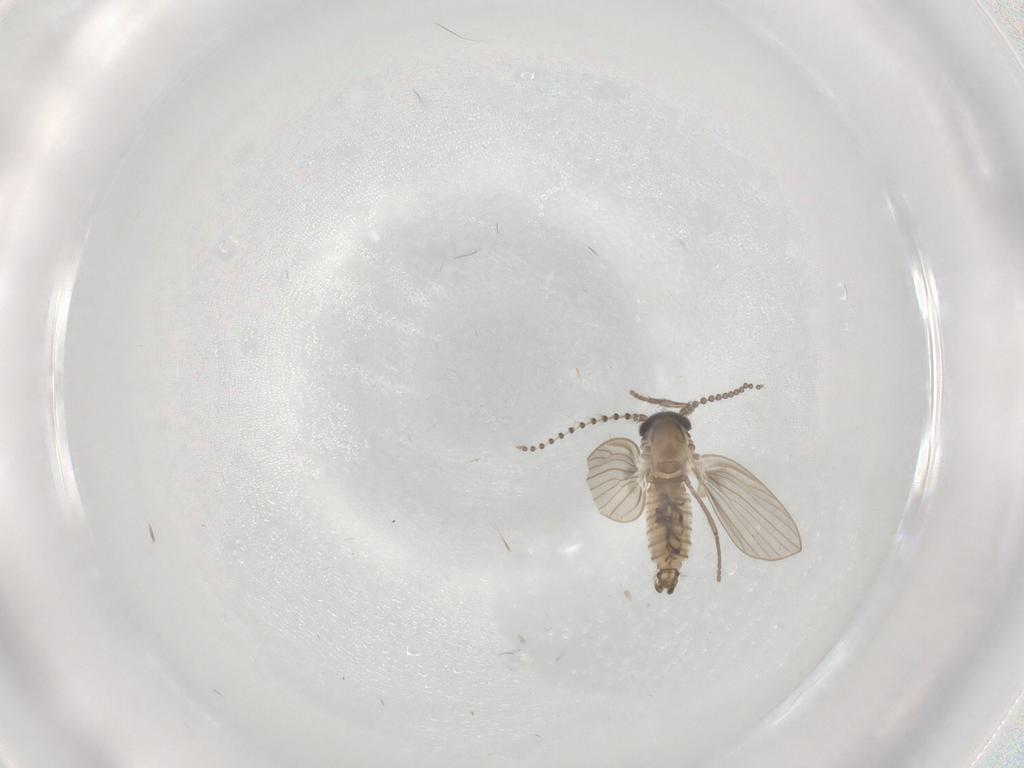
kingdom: Animalia
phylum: Arthropoda
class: Insecta
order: Diptera
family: Psychodidae
